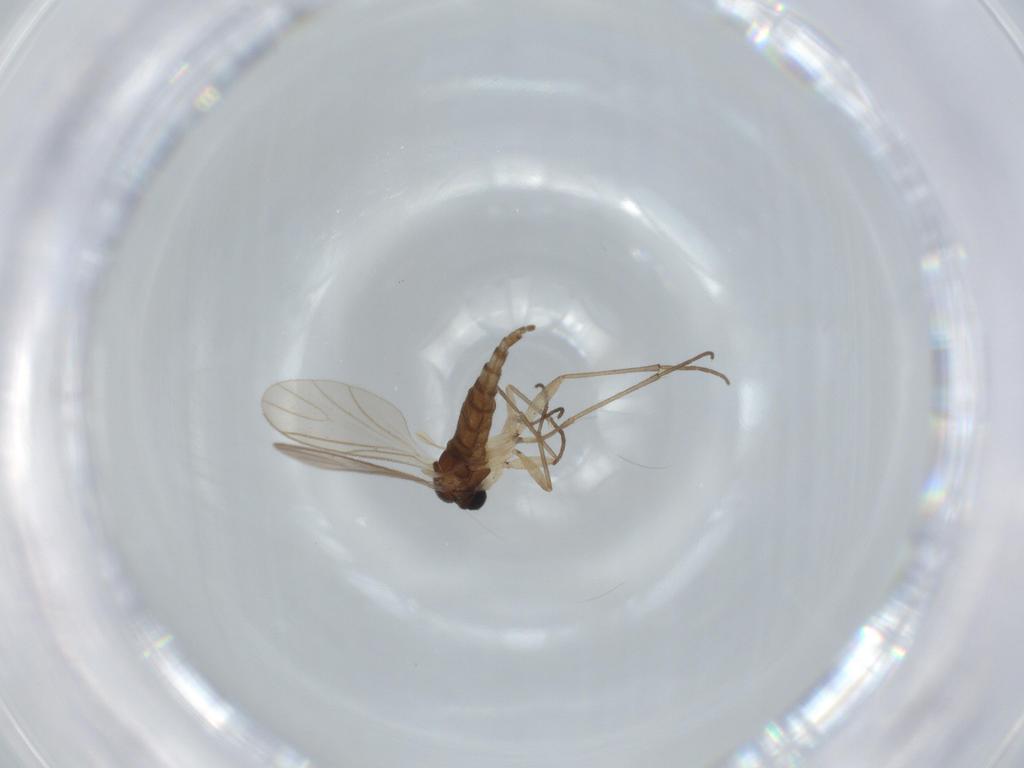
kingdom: Animalia
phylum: Arthropoda
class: Insecta
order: Diptera
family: Sciaridae
